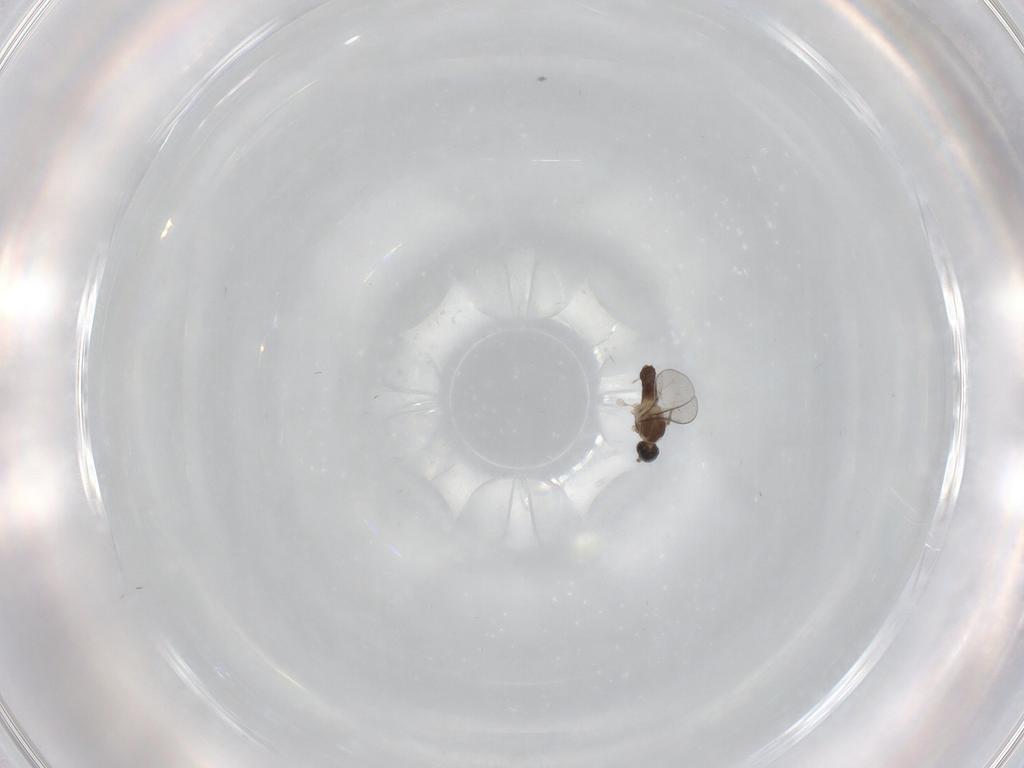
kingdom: Animalia
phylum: Arthropoda
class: Insecta
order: Diptera
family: Cecidomyiidae
